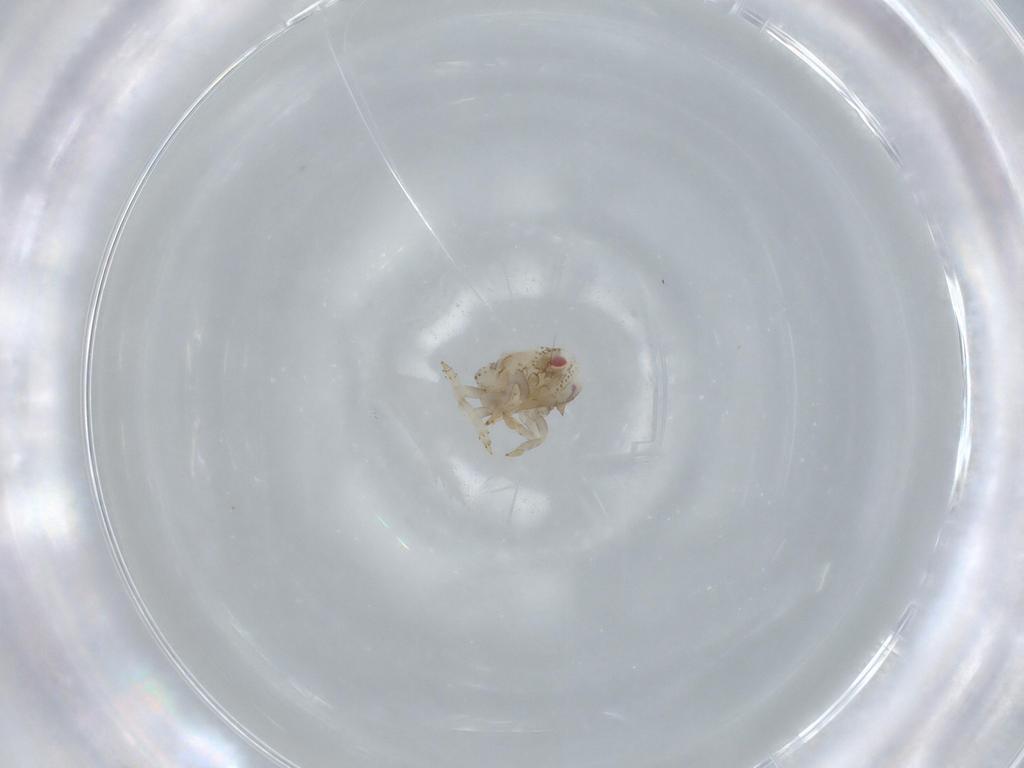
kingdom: Animalia
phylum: Arthropoda
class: Insecta
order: Hemiptera
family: Acanaloniidae
